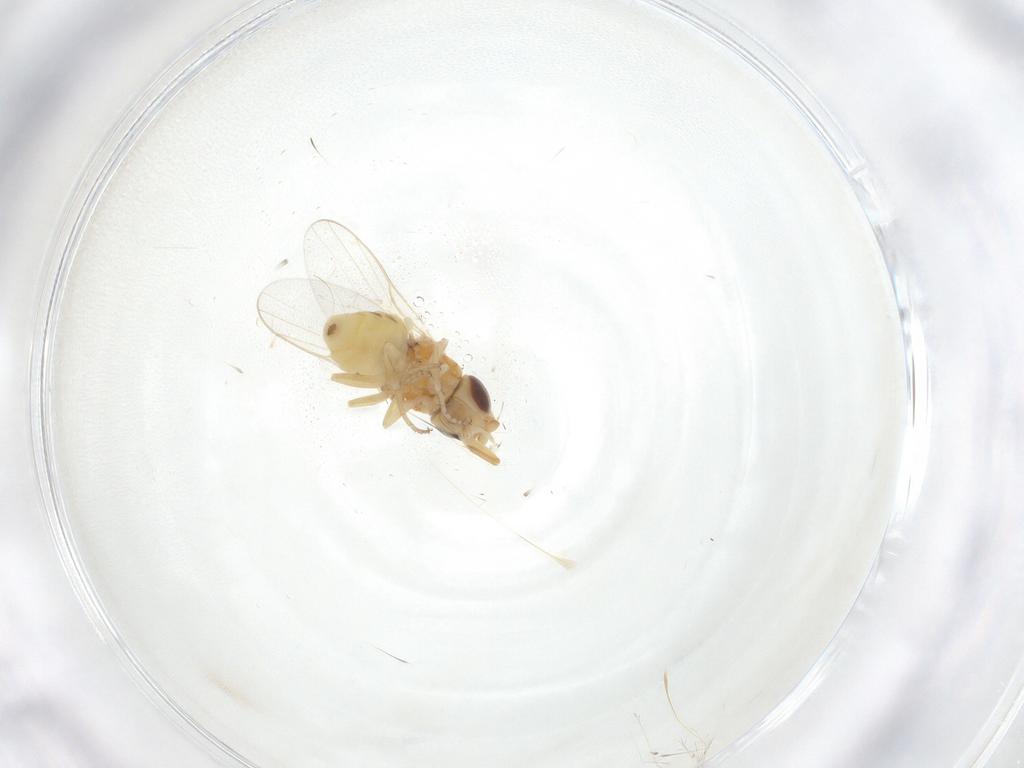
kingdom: Animalia
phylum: Arthropoda
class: Insecta
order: Diptera
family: Chloropidae
